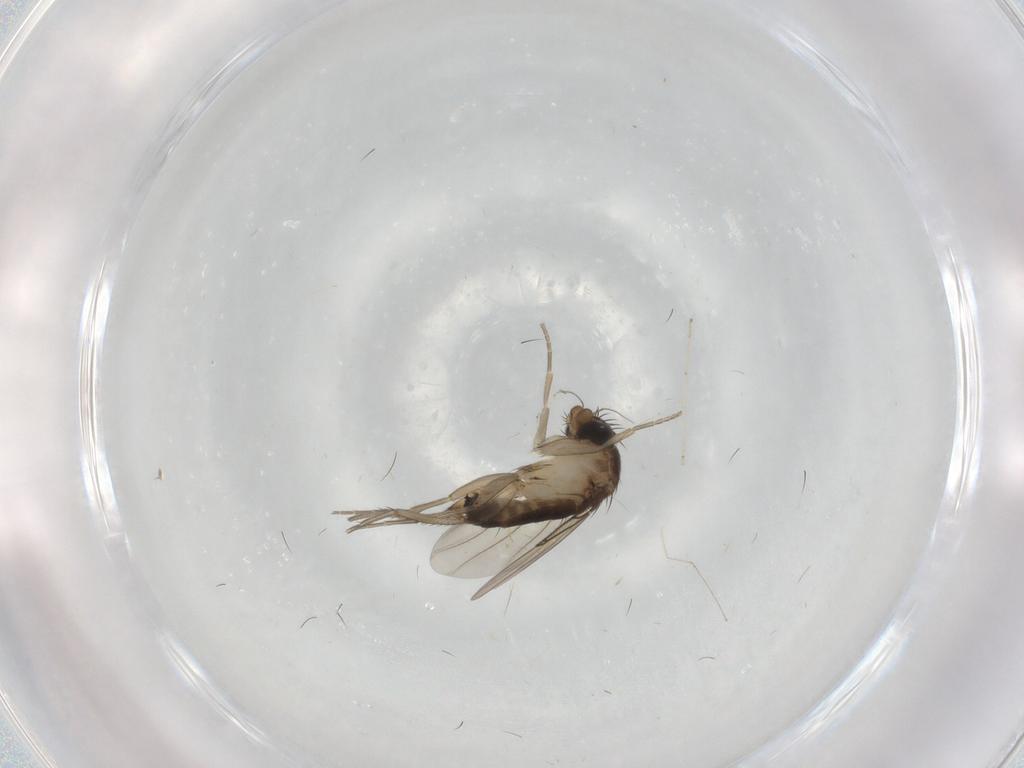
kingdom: Animalia
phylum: Arthropoda
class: Insecta
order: Diptera
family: Phoridae
